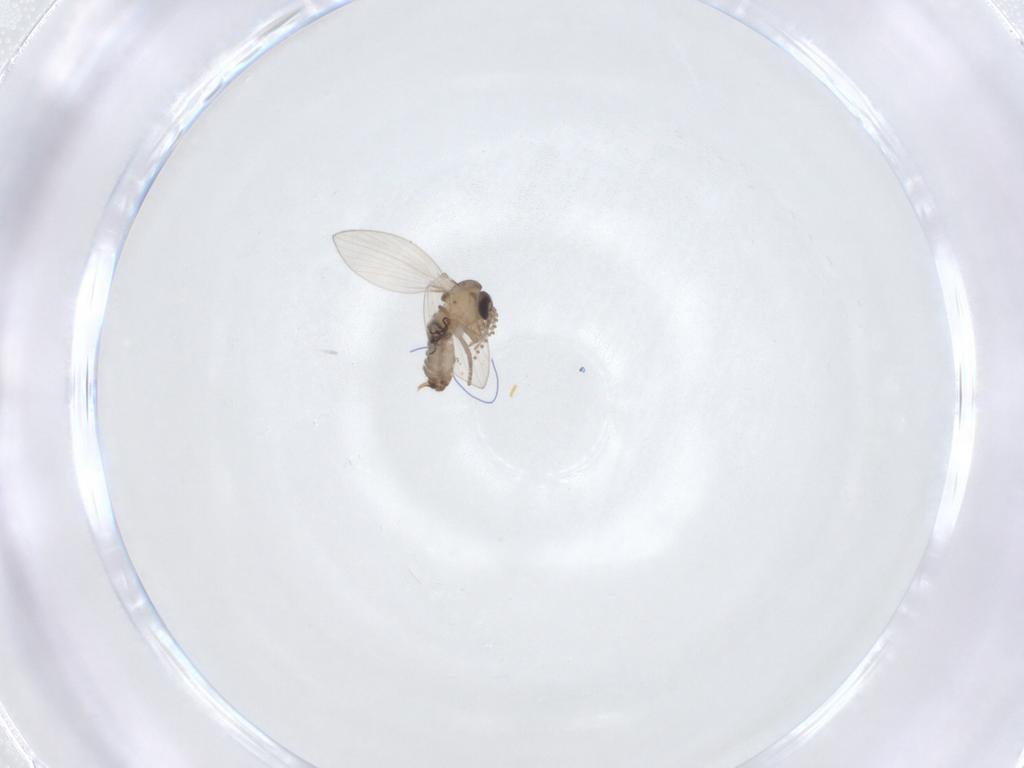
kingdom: Animalia
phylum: Arthropoda
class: Insecta
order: Diptera
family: Psychodidae
